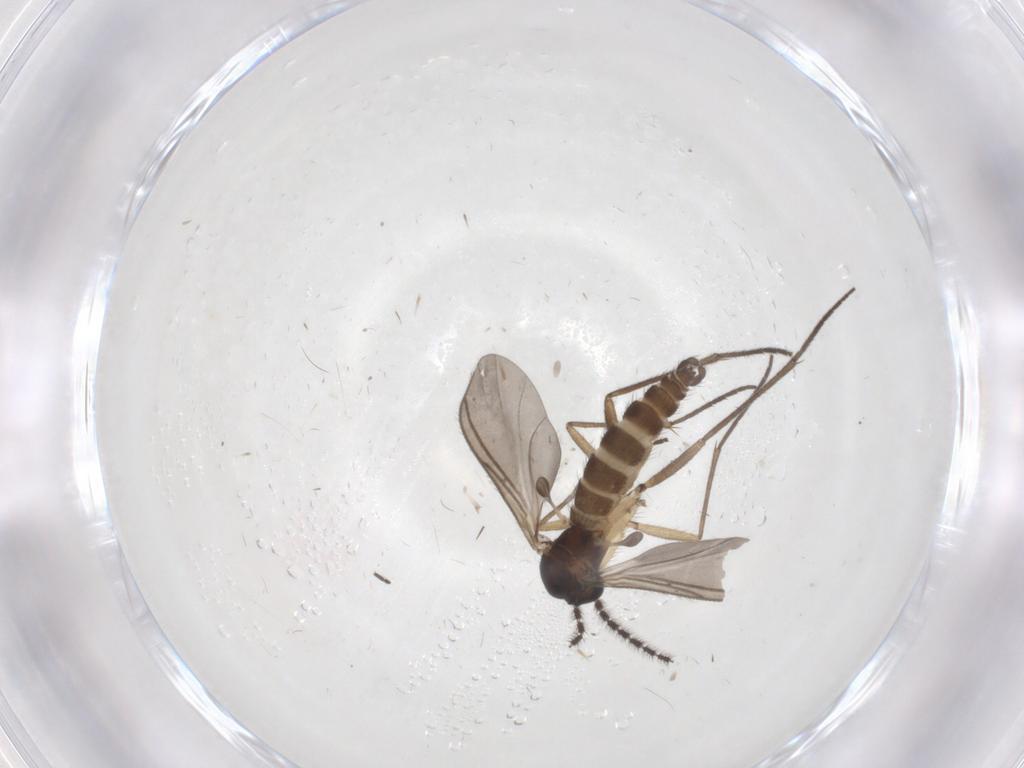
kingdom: Animalia
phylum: Arthropoda
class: Insecta
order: Diptera
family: Sciaridae
